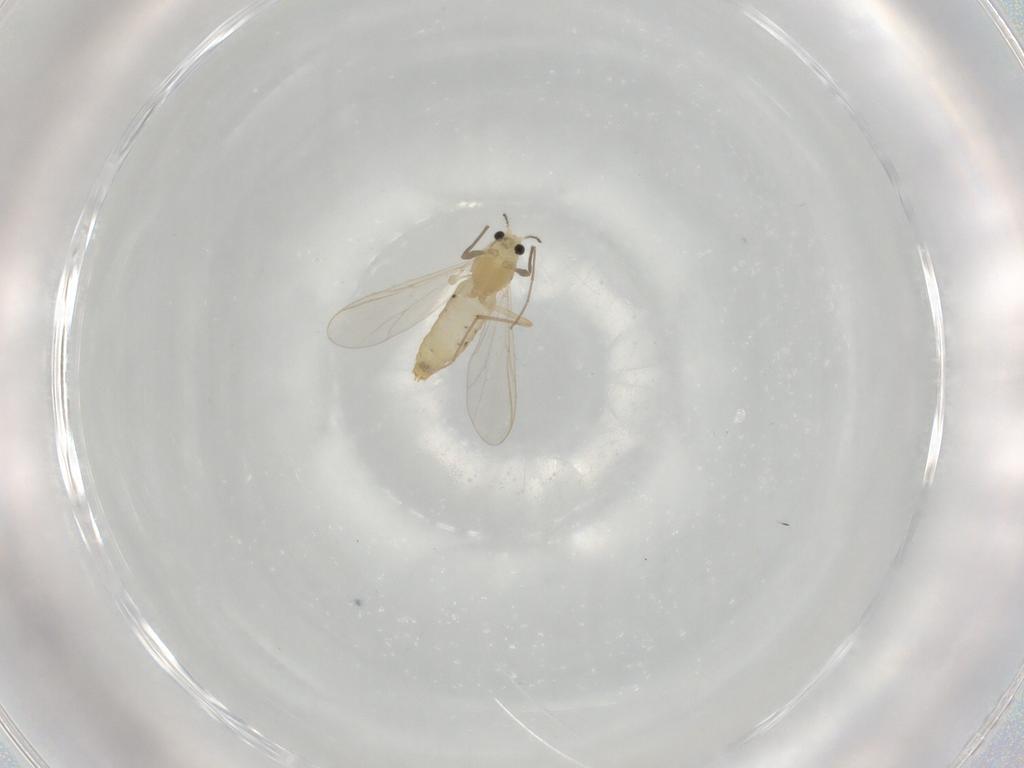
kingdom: Animalia
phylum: Arthropoda
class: Insecta
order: Diptera
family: Chironomidae
